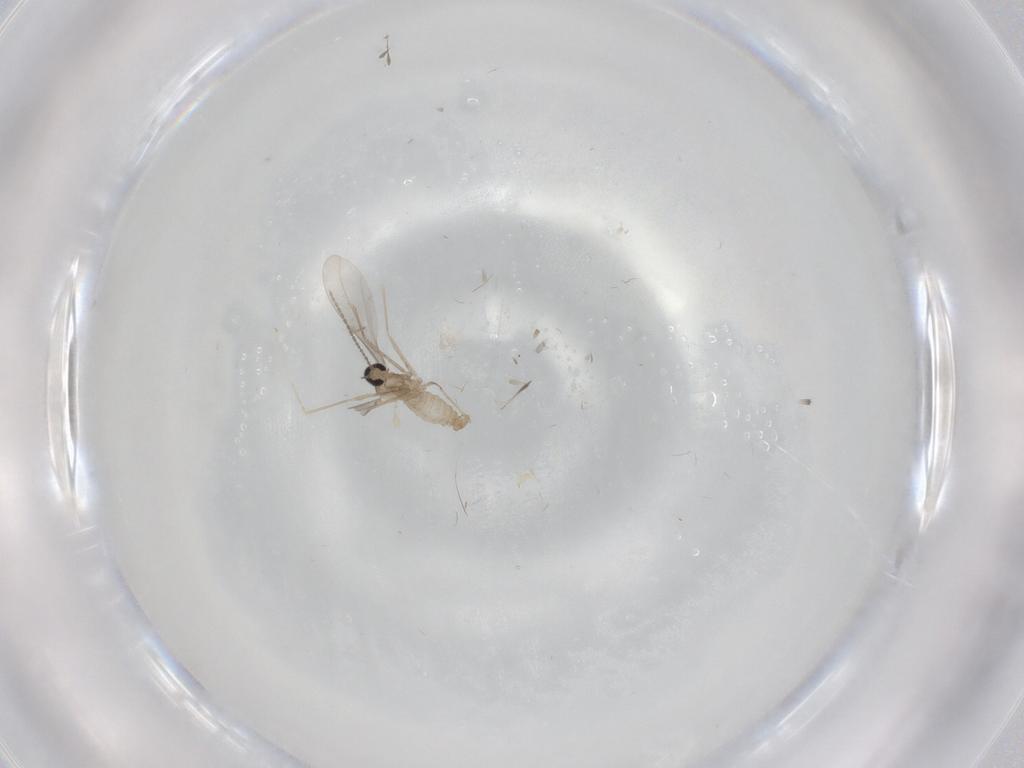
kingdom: Animalia
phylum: Arthropoda
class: Insecta
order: Diptera
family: Cecidomyiidae
